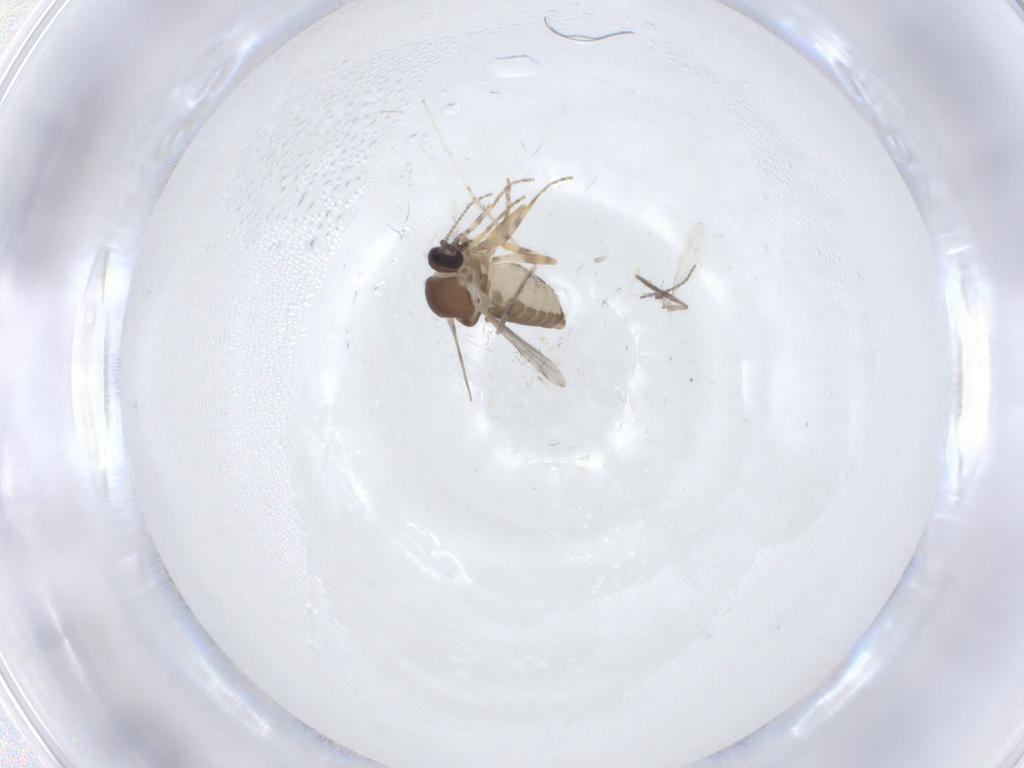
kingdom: Animalia
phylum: Arthropoda
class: Insecta
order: Diptera
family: Ceratopogonidae
